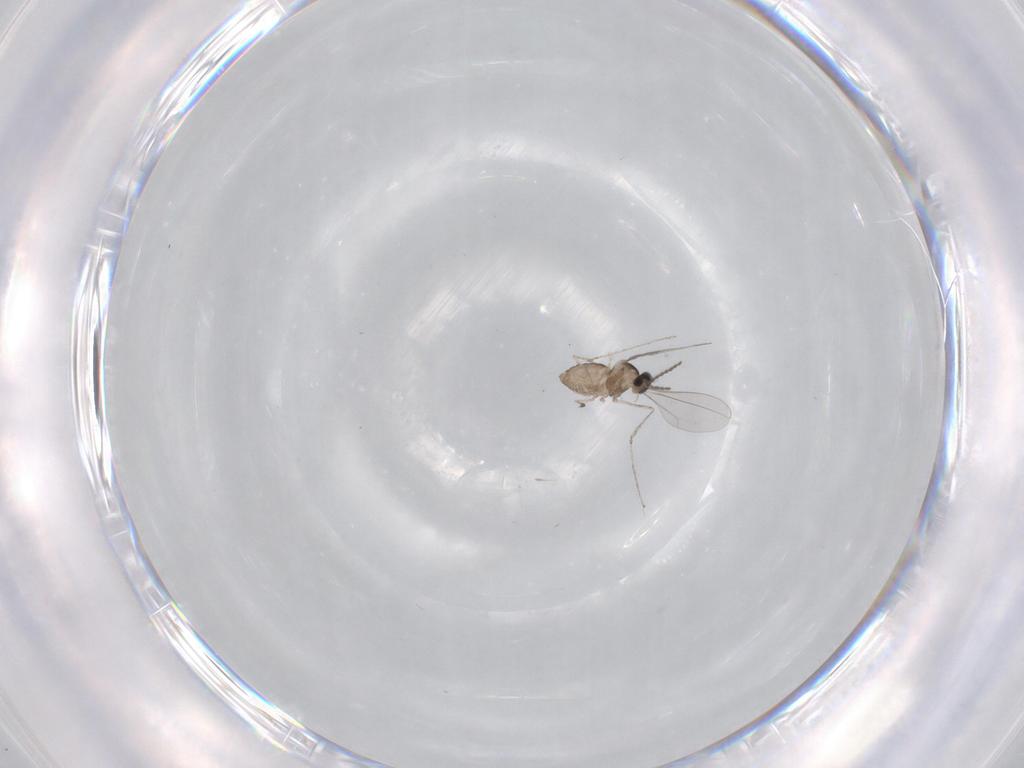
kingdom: Animalia
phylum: Arthropoda
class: Insecta
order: Diptera
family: Cecidomyiidae
